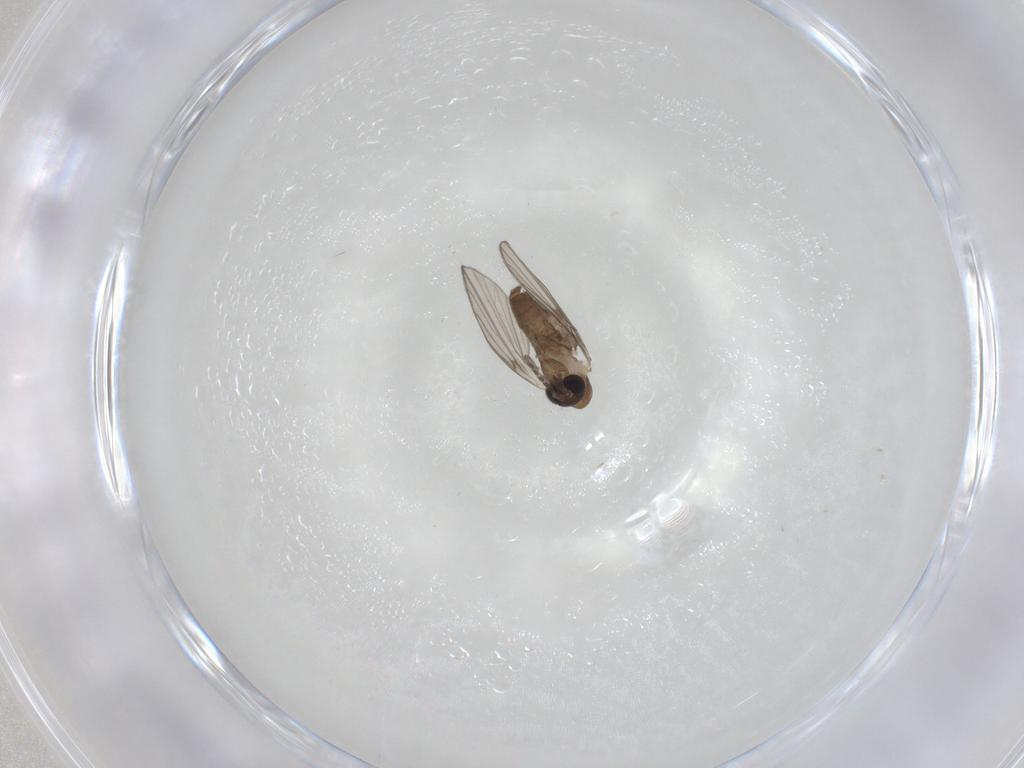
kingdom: Animalia
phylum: Arthropoda
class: Insecta
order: Diptera
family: Psychodidae
